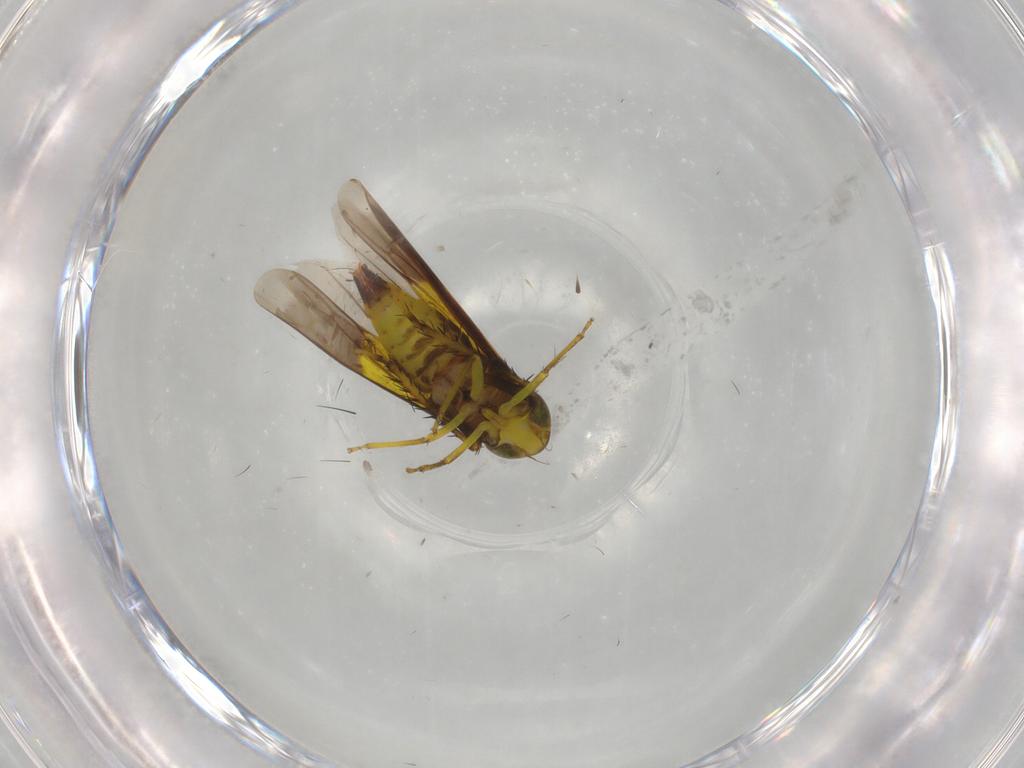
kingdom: Animalia
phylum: Arthropoda
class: Insecta
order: Hemiptera
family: Cicadellidae
